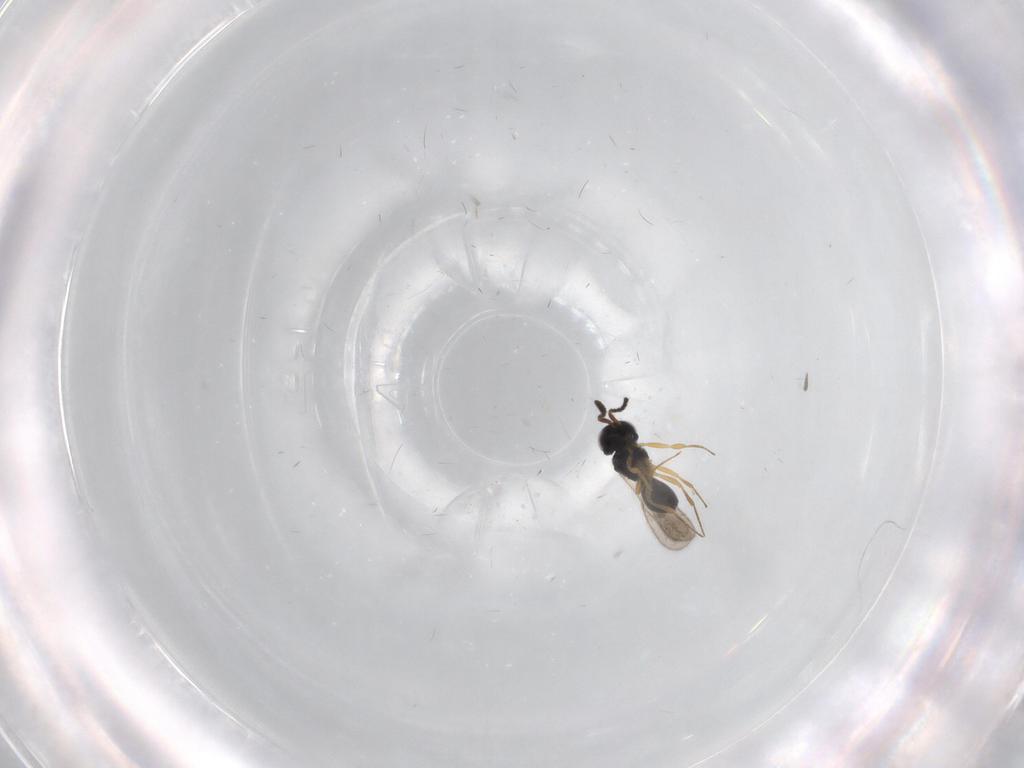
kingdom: Animalia
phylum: Arthropoda
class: Insecta
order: Hymenoptera
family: Scelionidae
